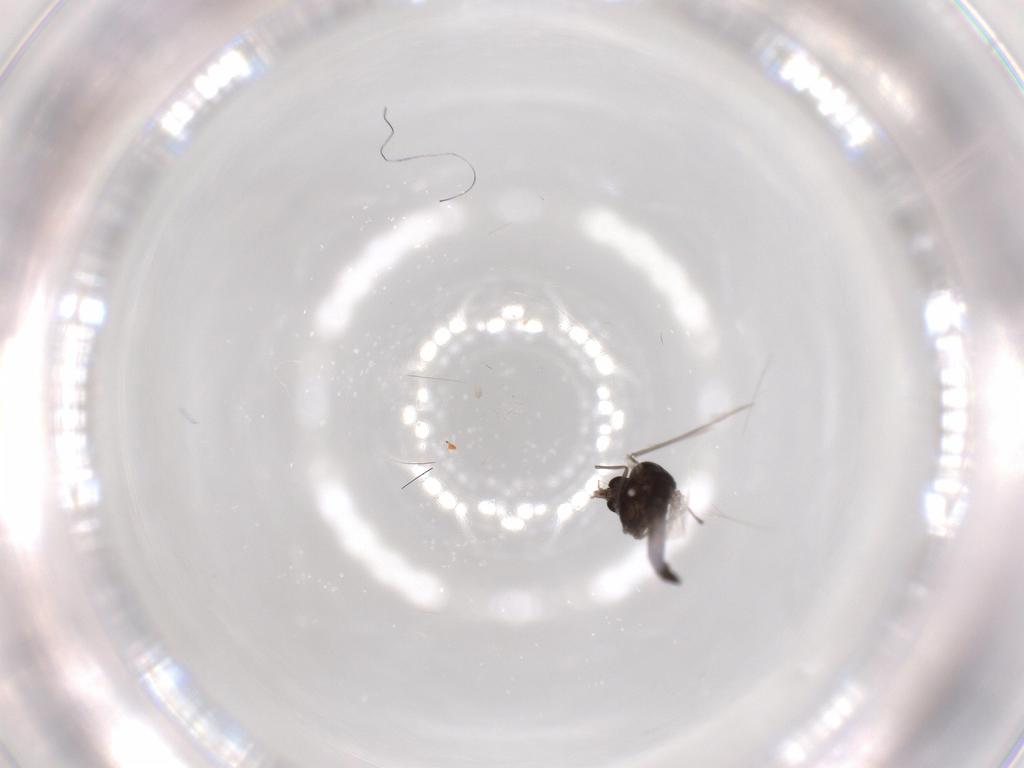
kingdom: Animalia
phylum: Arthropoda
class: Insecta
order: Diptera
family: Chironomidae
